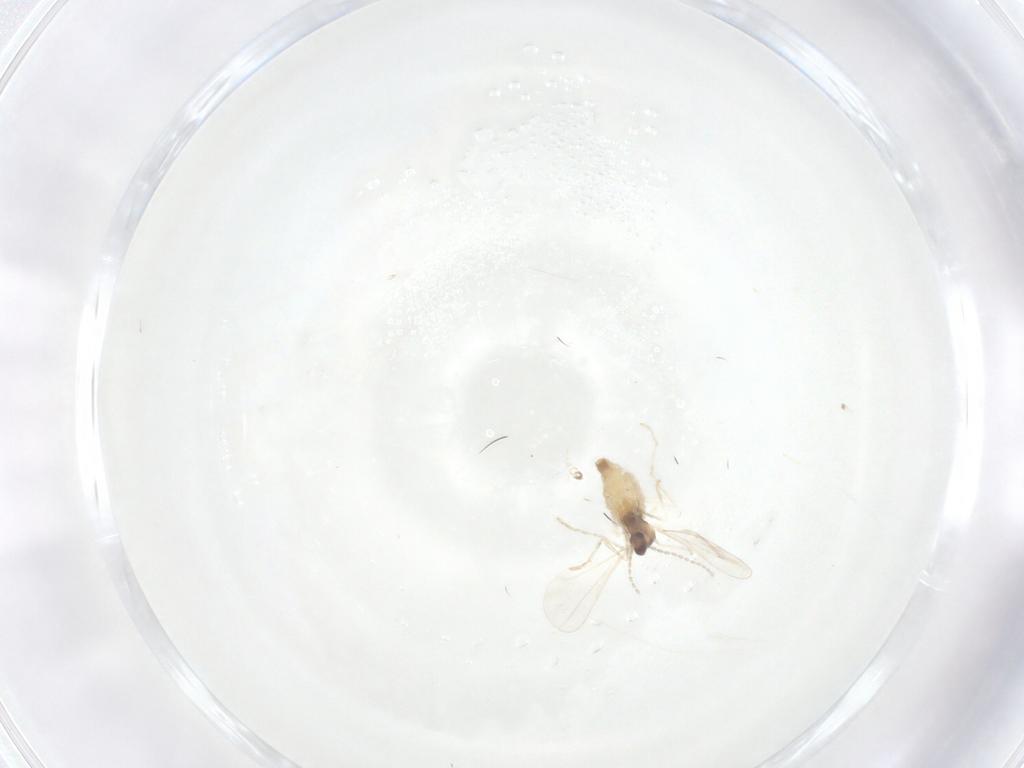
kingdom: Animalia
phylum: Arthropoda
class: Insecta
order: Diptera
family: Cecidomyiidae
